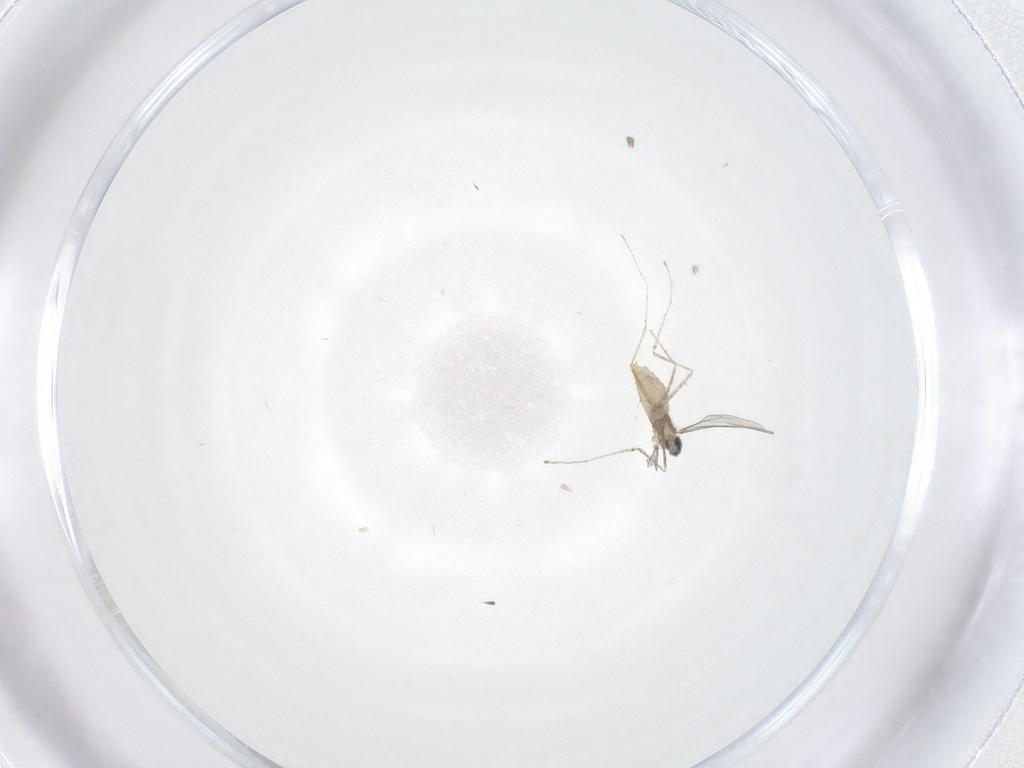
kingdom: Animalia
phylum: Arthropoda
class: Insecta
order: Diptera
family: Cecidomyiidae
